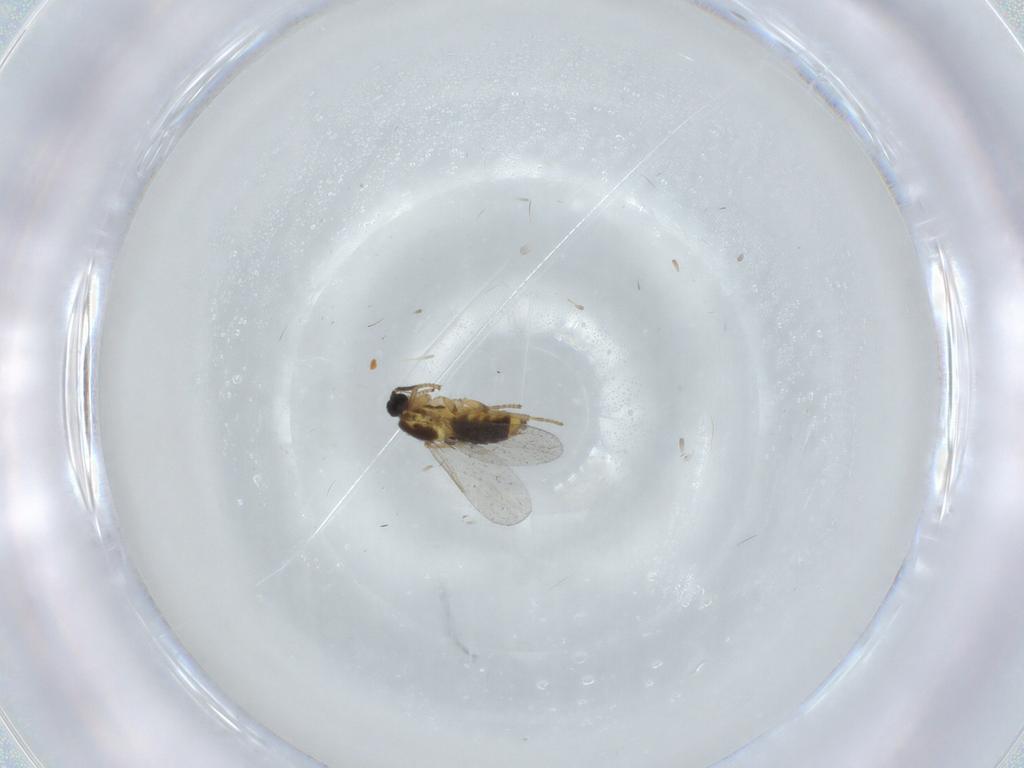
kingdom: Animalia
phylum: Arthropoda
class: Insecta
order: Diptera
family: Scatopsidae
